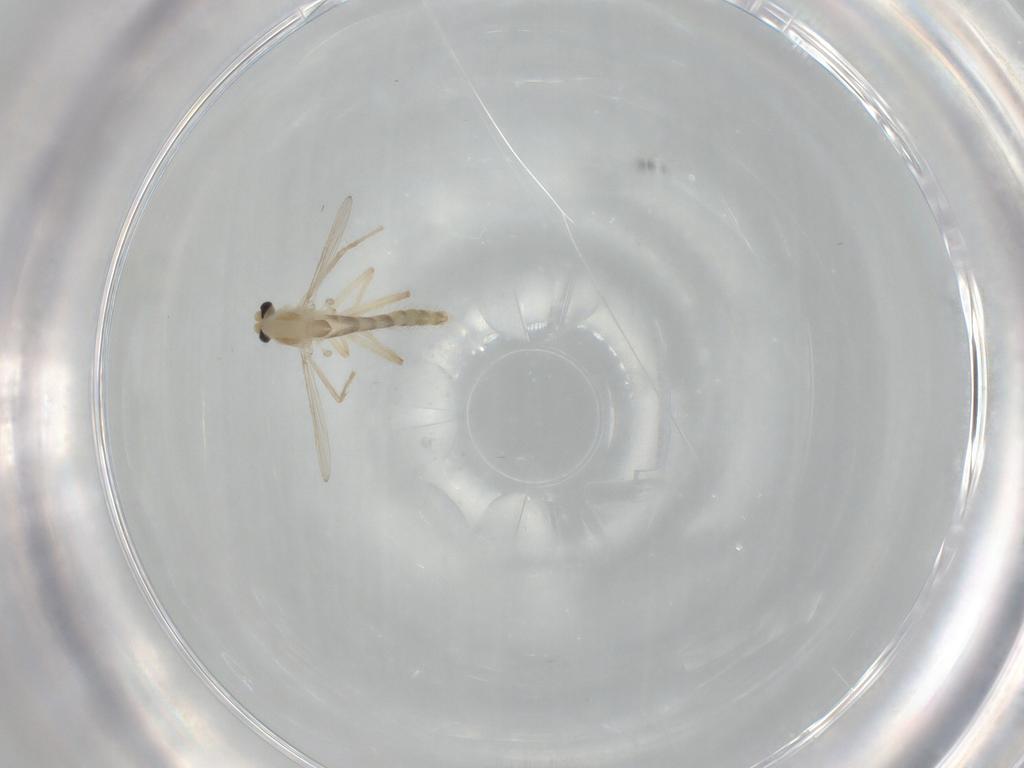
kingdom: Animalia
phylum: Arthropoda
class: Insecta
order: Diptera
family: Chironomidae
